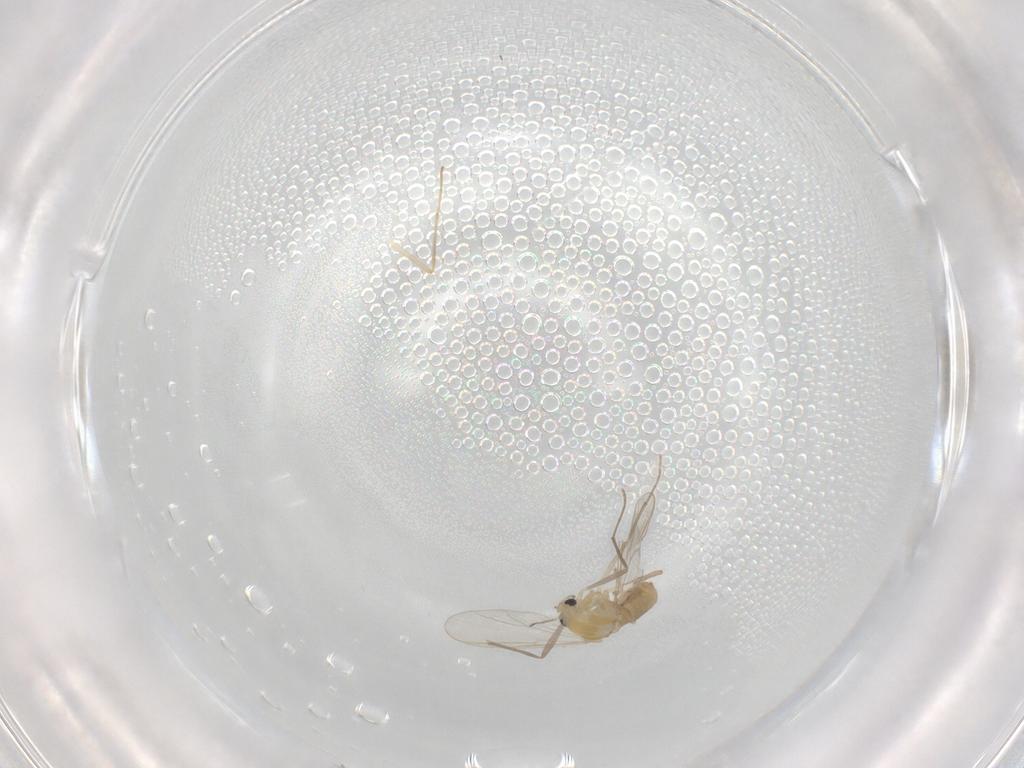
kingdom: Animalia
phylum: Arthropoda
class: Insecta
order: Diptera
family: Chironomidae
